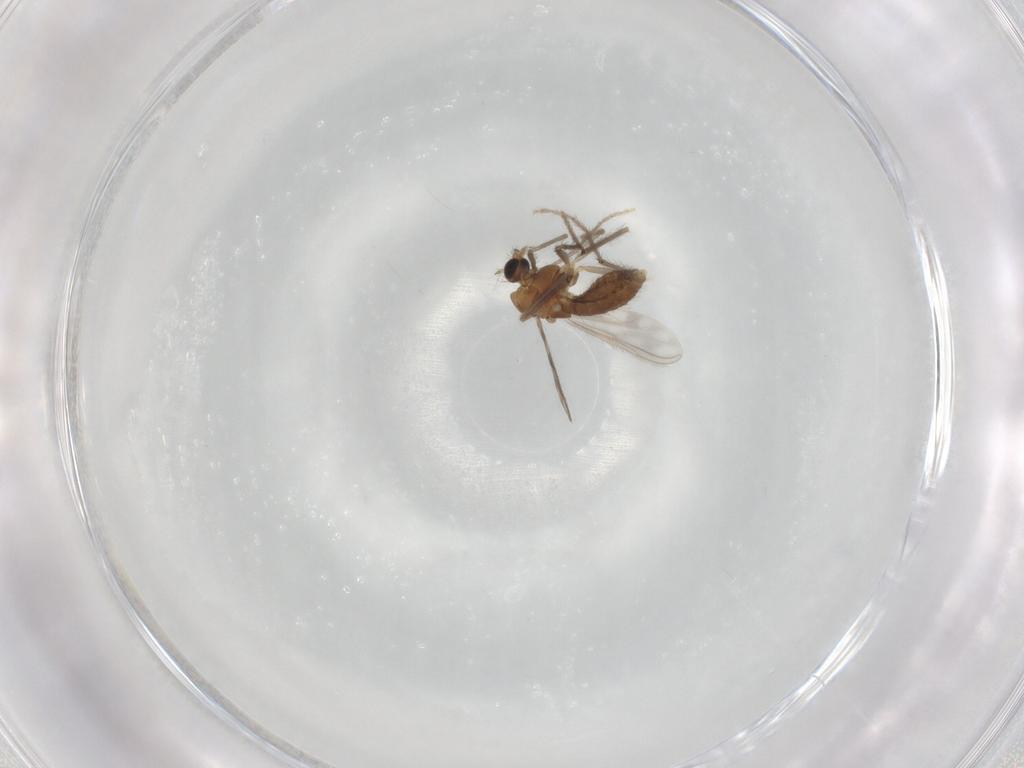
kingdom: Animalia
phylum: Arthropoda
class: Insecta
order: Diptera
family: Chironomidae
